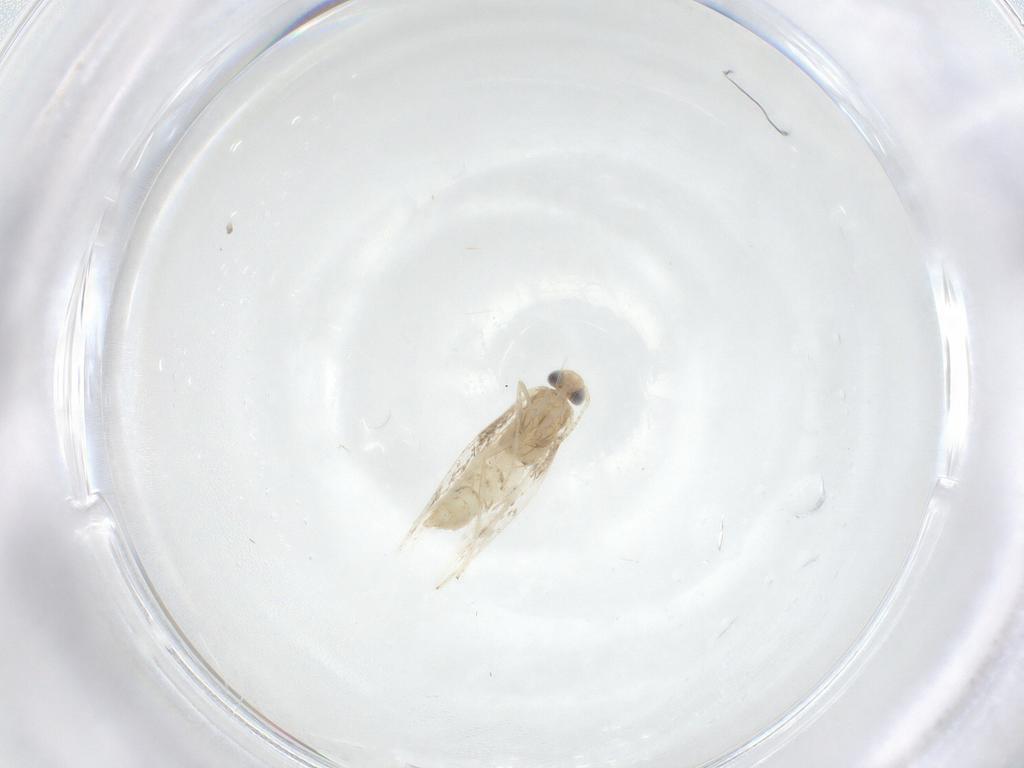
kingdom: Animalia
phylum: Arthropoda
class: Insecta
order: Lepidoptera
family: Gracillariidae
